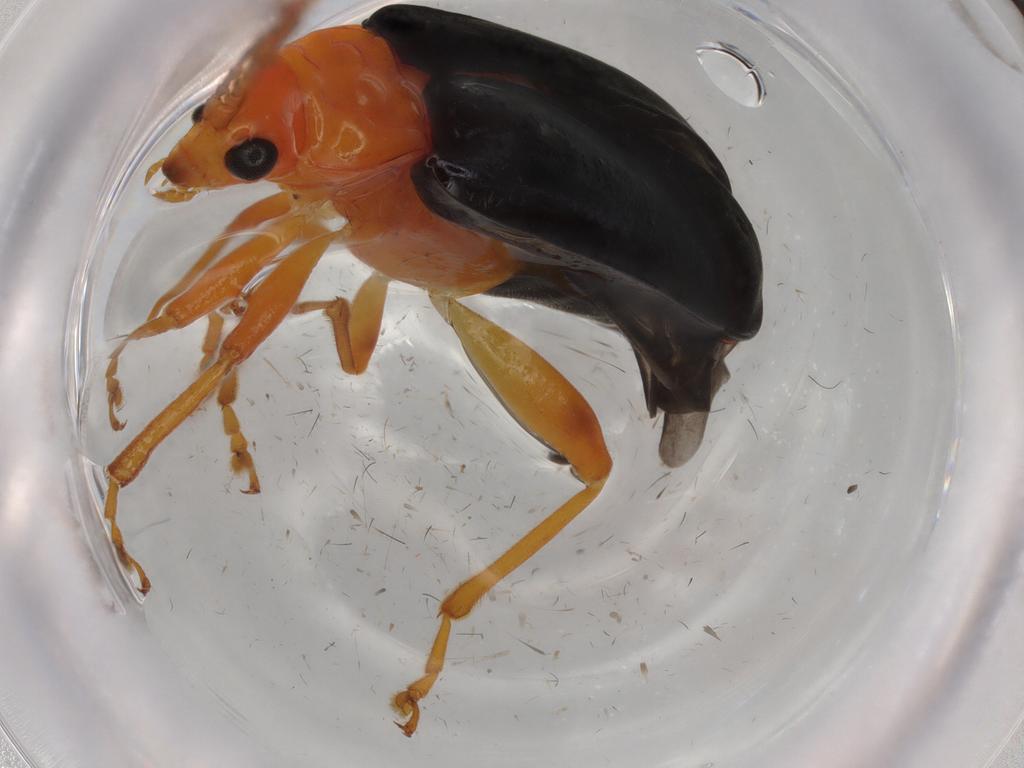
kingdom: Animalia
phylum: Arthropoda
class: Insecta
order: Coleoptera
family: Chrysomelidae
